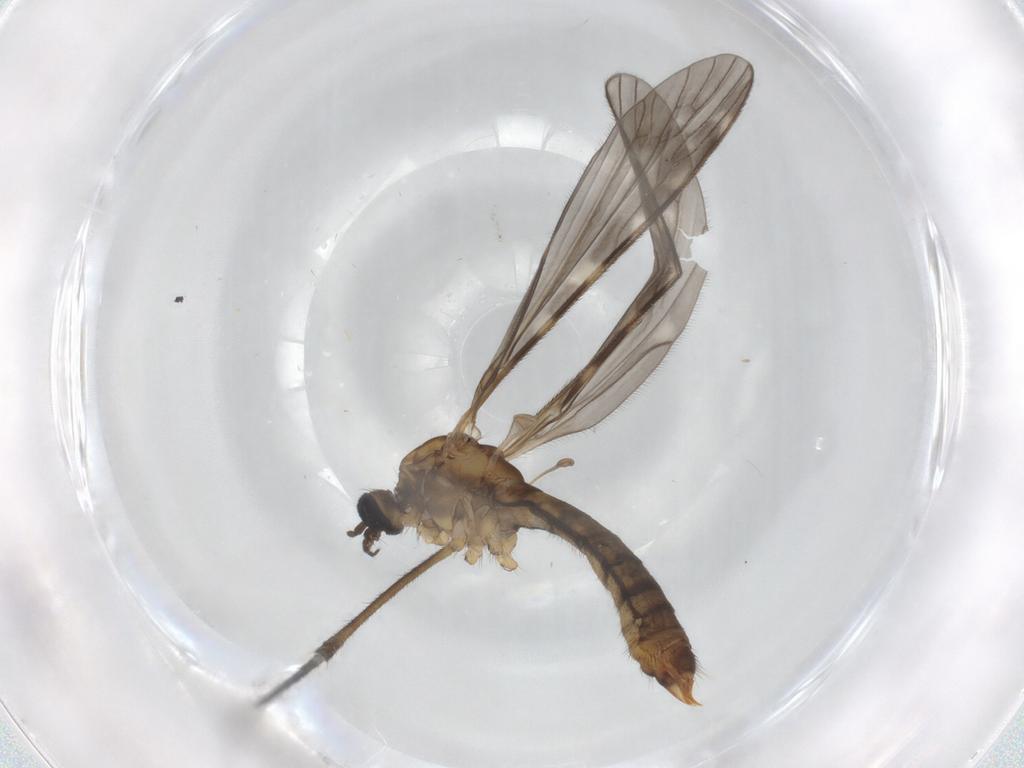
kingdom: Animalia
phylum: Arthropoda
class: Insecta
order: Diptera
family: Limoniidae
